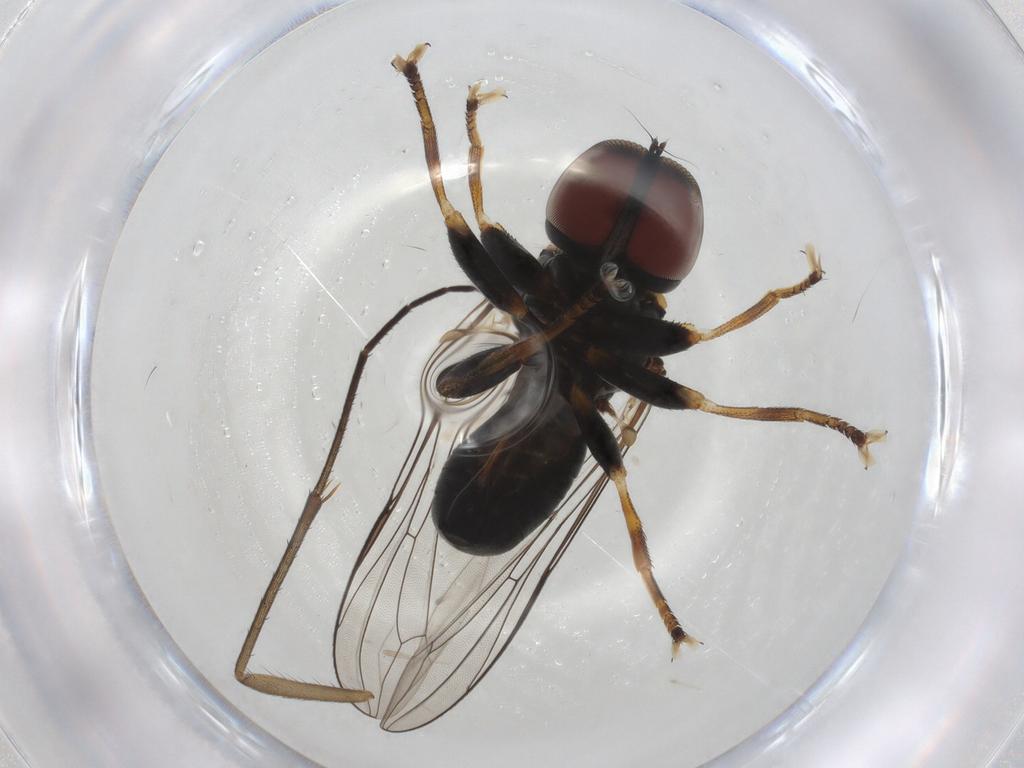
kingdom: Animalia
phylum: Arthropoda
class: Insecta
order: Diptera
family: Pipunculidae
